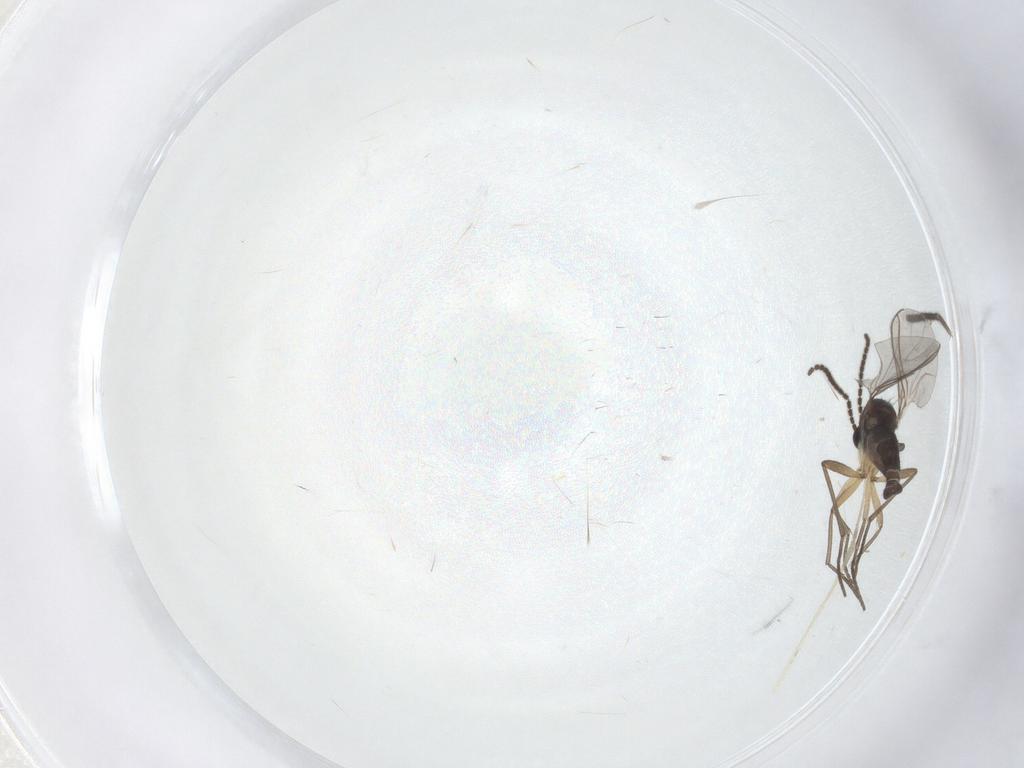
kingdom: Animalia
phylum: Arthropoda
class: Insecta
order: Diptera
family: Sciaridae
